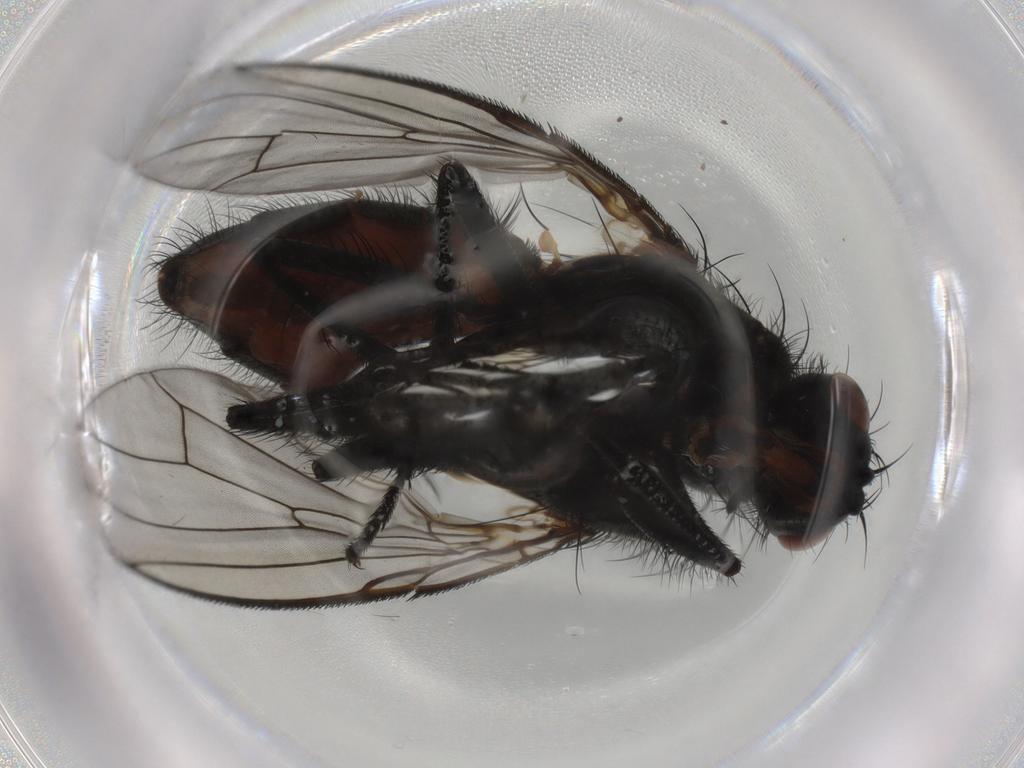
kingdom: Animalia
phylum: Arthropoda
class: Insecta
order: Diptera
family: Anthomyiidae
